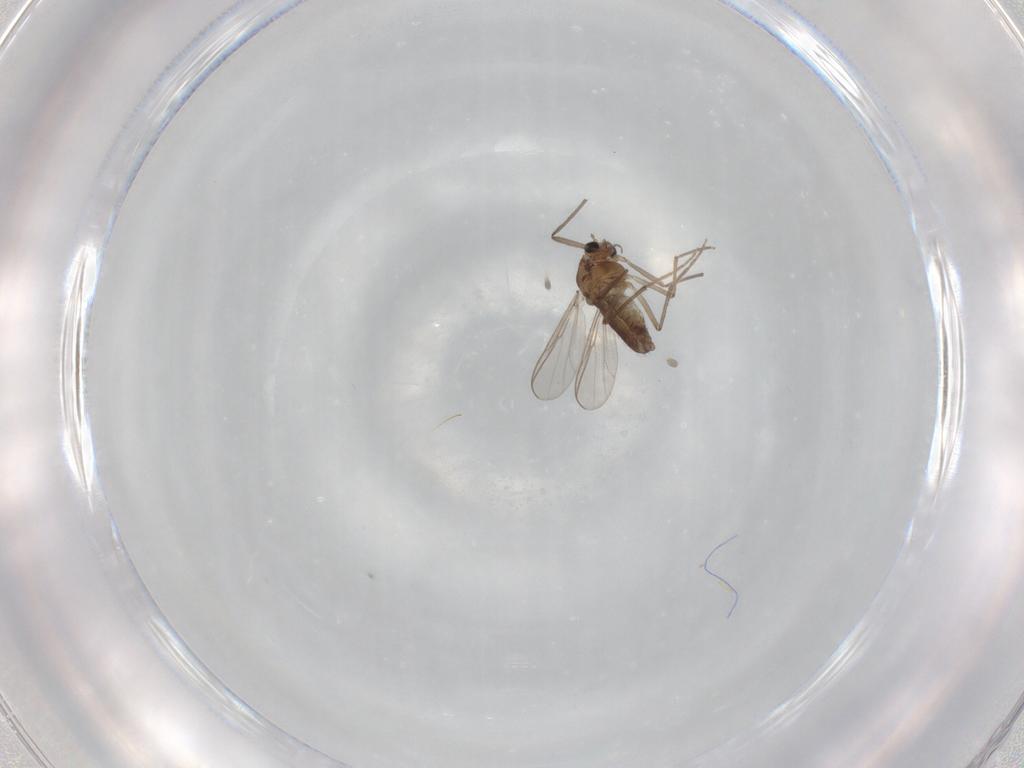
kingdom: Animalia
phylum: Arthropoda
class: Insecta
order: Diptera
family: Chironomidae
